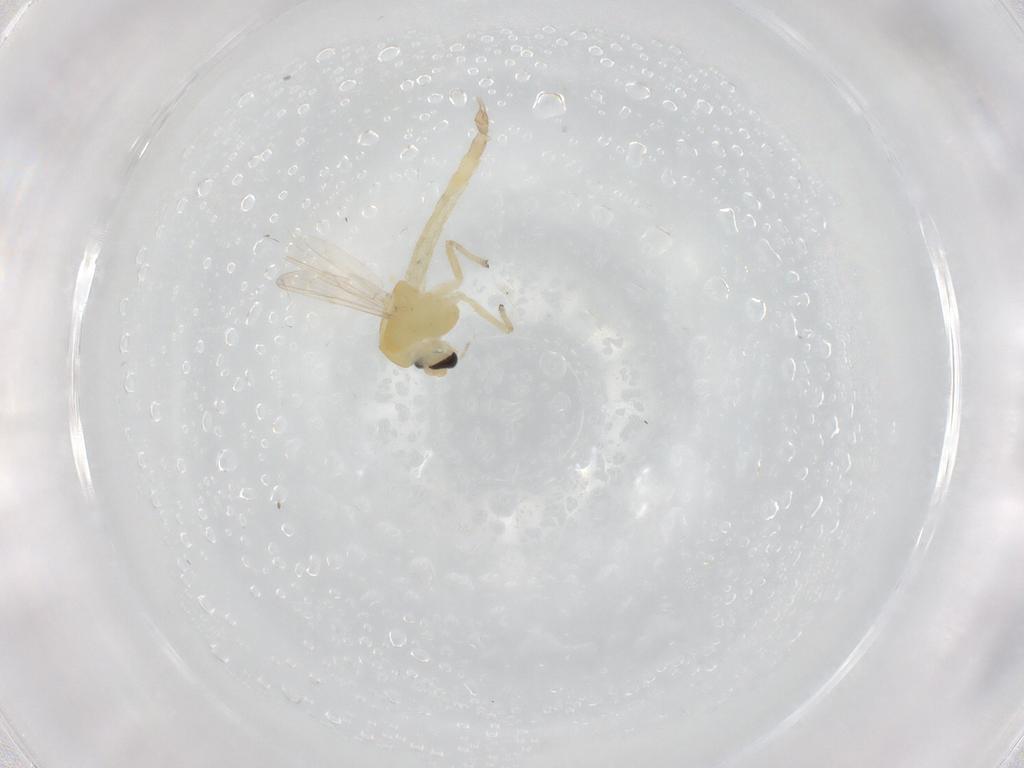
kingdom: Animalia
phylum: Arthropoda
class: Insecta
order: Diptera
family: Chironomidae
